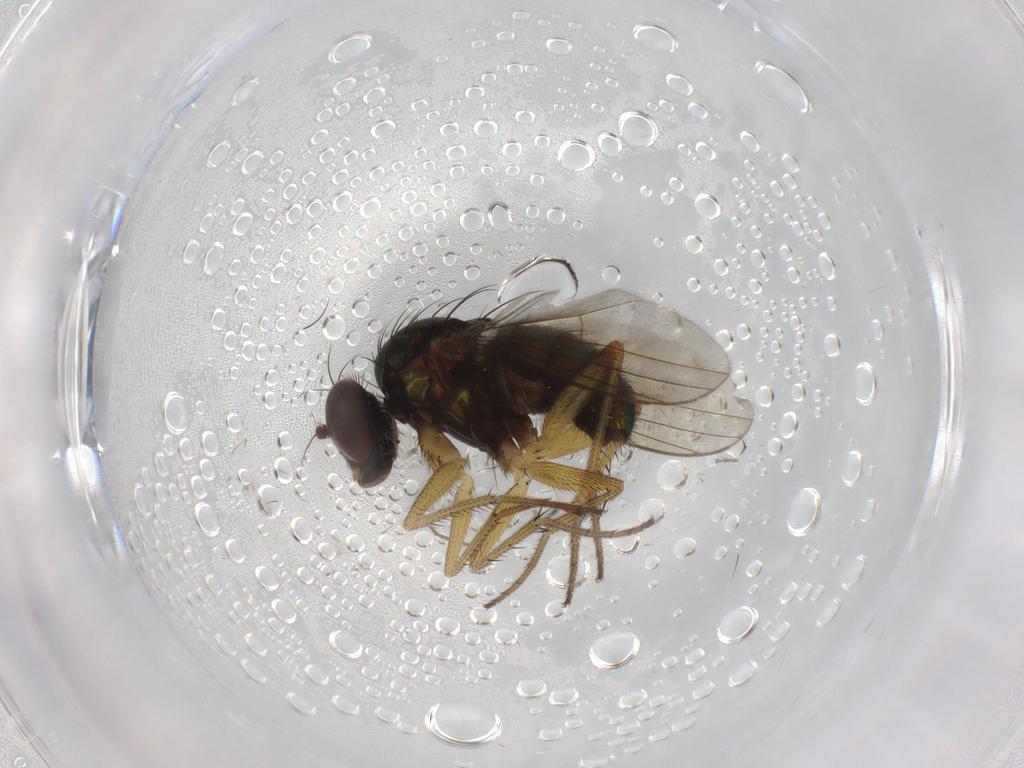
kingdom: Animalia
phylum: Arthropoda
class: Insecta
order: Diptera
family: Dolichopodidae
